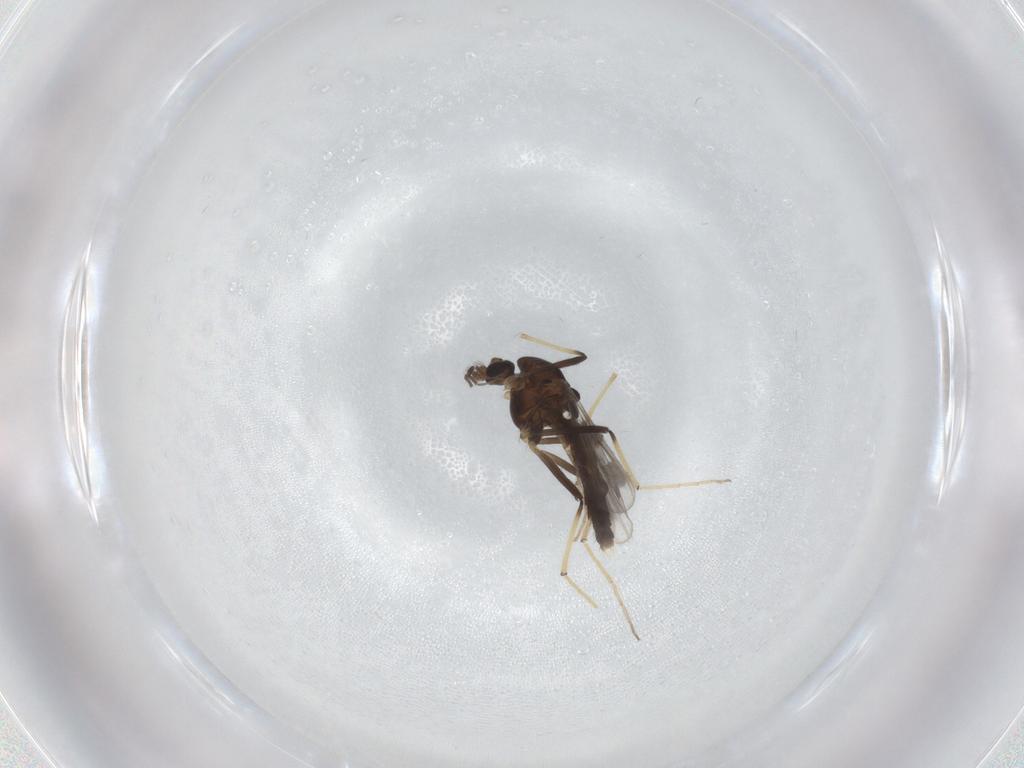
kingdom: Animalia
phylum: Arthropoda
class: Insecta
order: Diptera
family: Chironomidae
